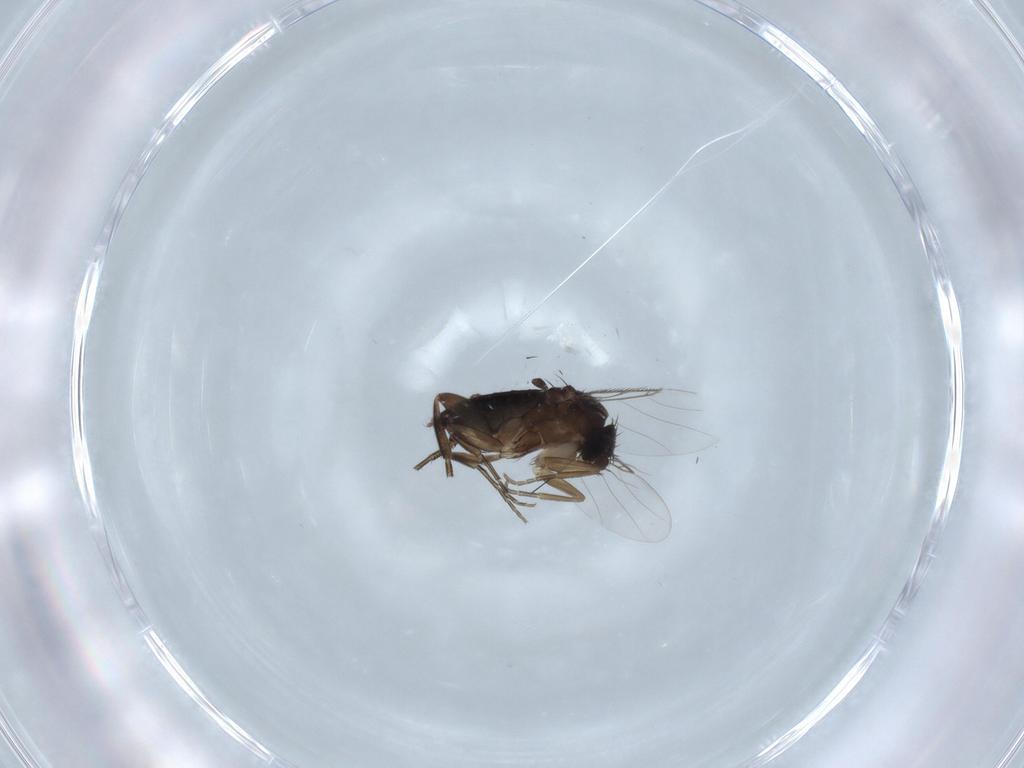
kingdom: Animalia
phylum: Arthropoda
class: Insecta
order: Diptera
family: Phoridae
